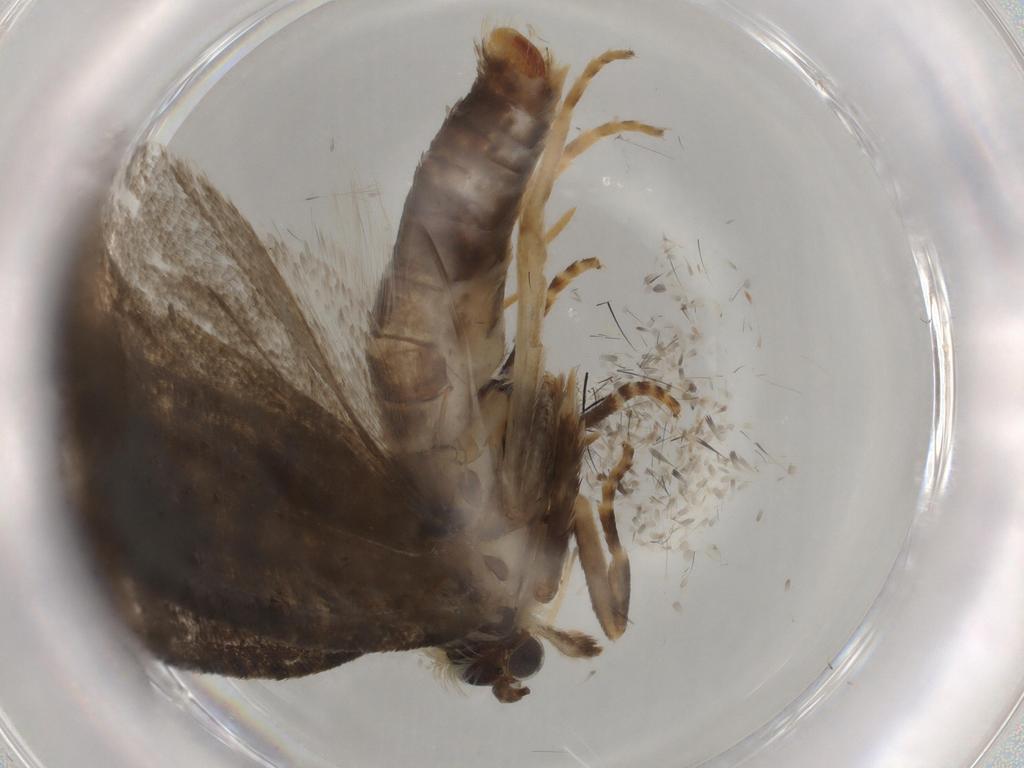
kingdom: Animalia
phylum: Arthropoda
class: Insecta
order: Lepidoptera
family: Tortricidae
